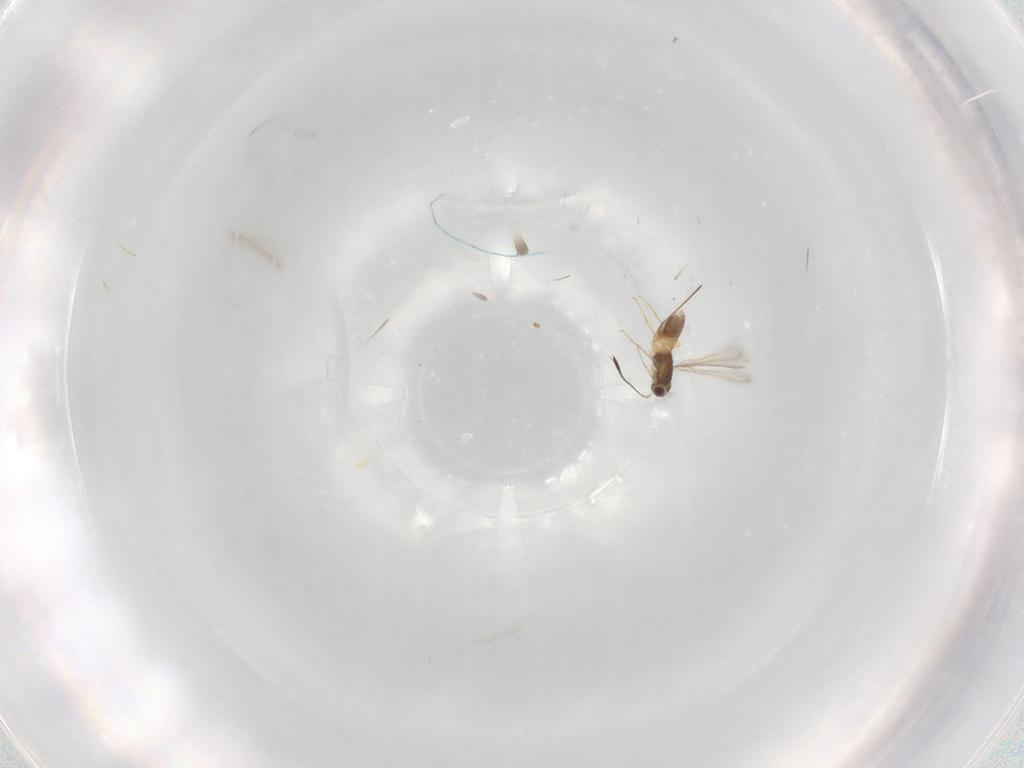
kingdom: Animalia
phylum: Arthropoda
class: Insecta
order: Hymenoptera
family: Mymaridae
